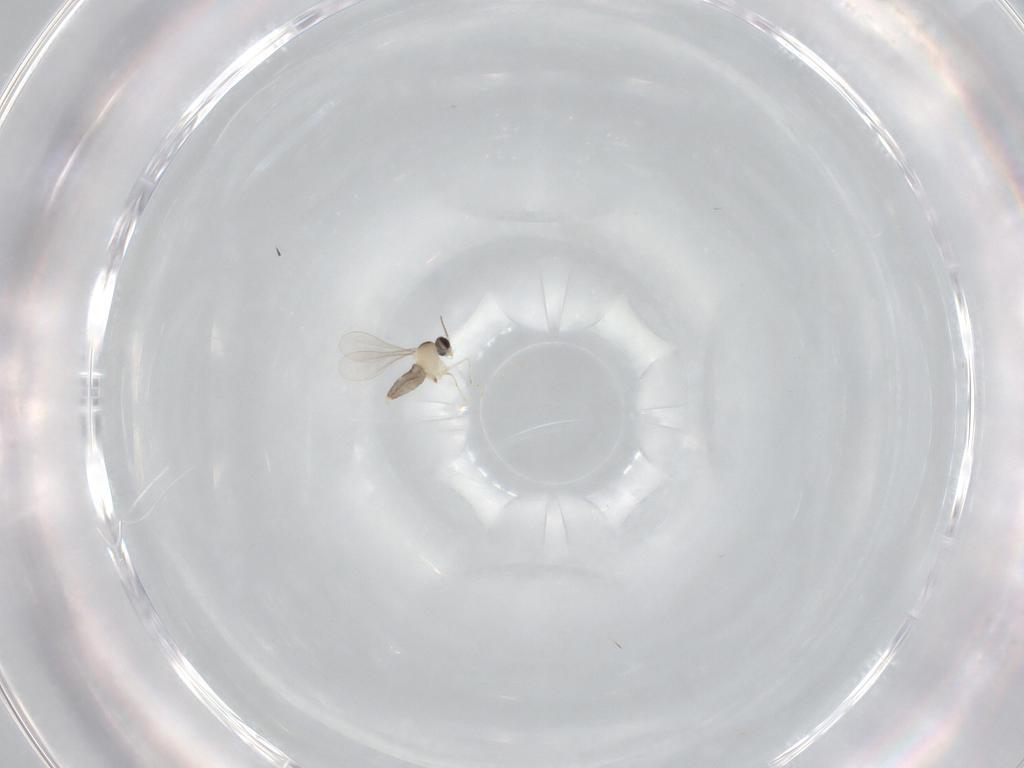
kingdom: Animalia
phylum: Arthropoda
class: Insecta
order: Diptera
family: Cecidomyiidae
